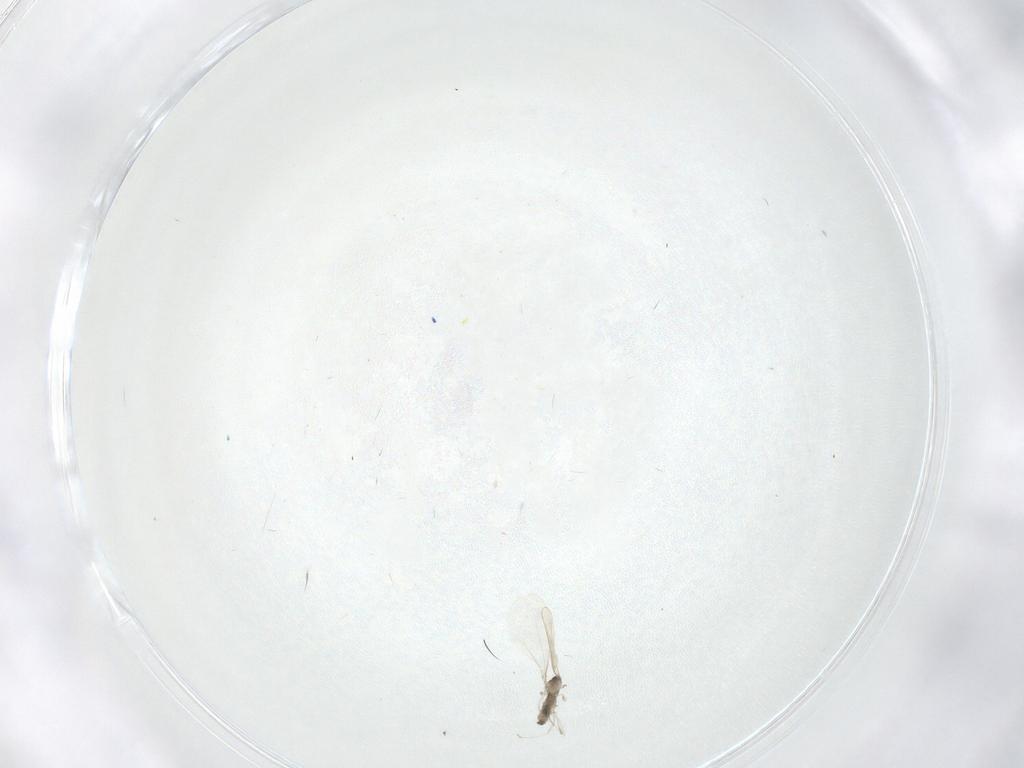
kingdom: Animalia
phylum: Arthropoda
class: Insecta
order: Diptera
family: Cecidomyiidae
